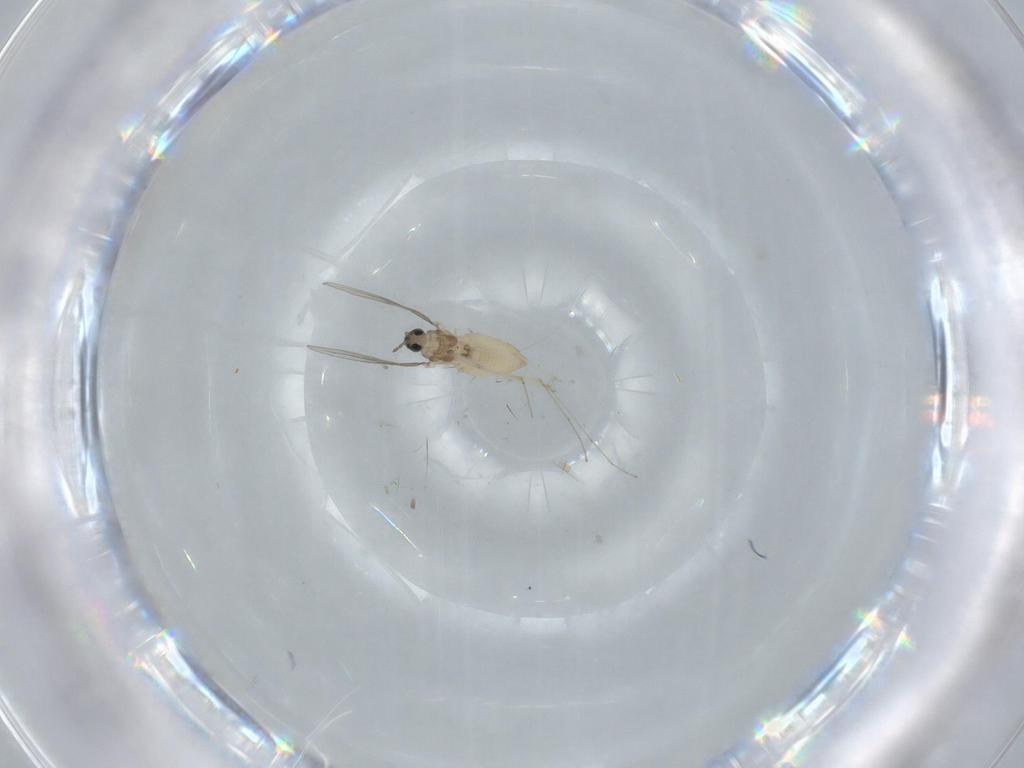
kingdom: Animalia
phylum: Arthropoda
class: Insecta
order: Diptera
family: Cecidomyiidae
